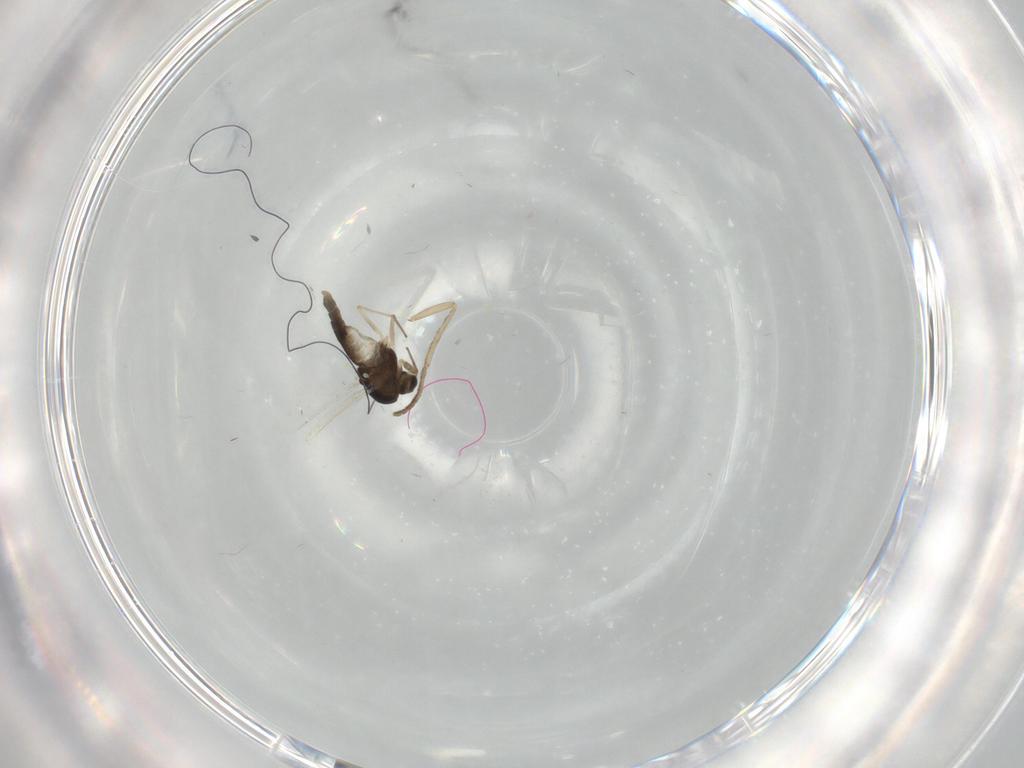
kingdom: Animalia
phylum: Arthropoda
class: Insecta
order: Diptera
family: Chironomidae
